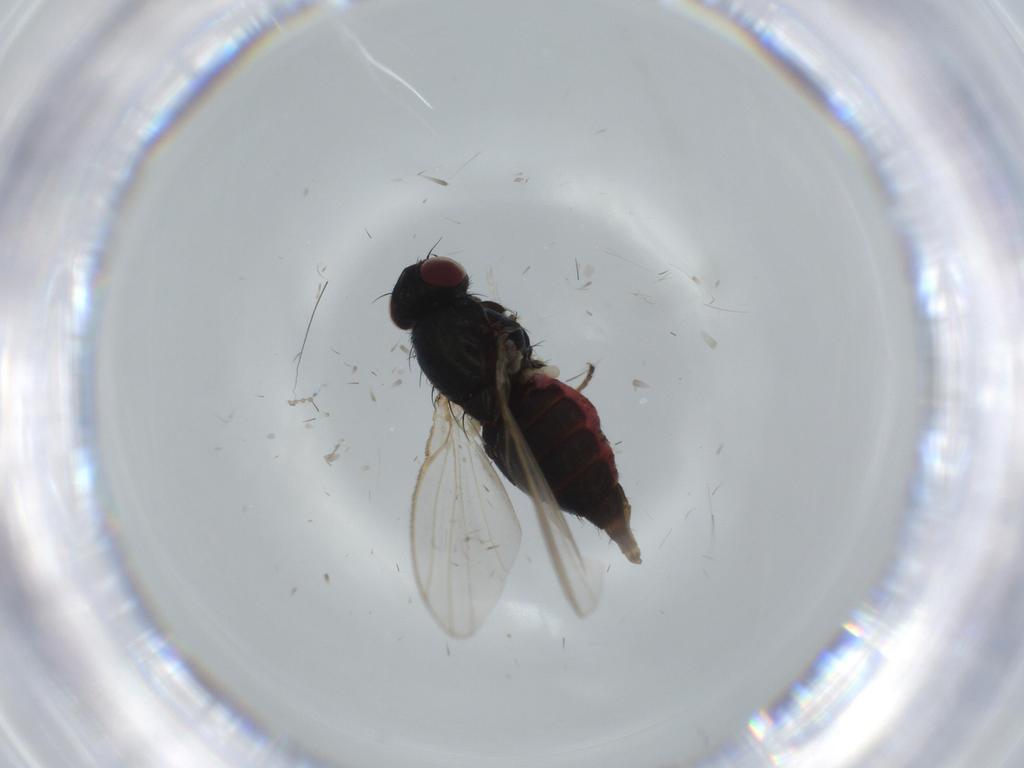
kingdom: Animalia
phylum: Arthropoda
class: Insecta
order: Diptera
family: Carnidae
